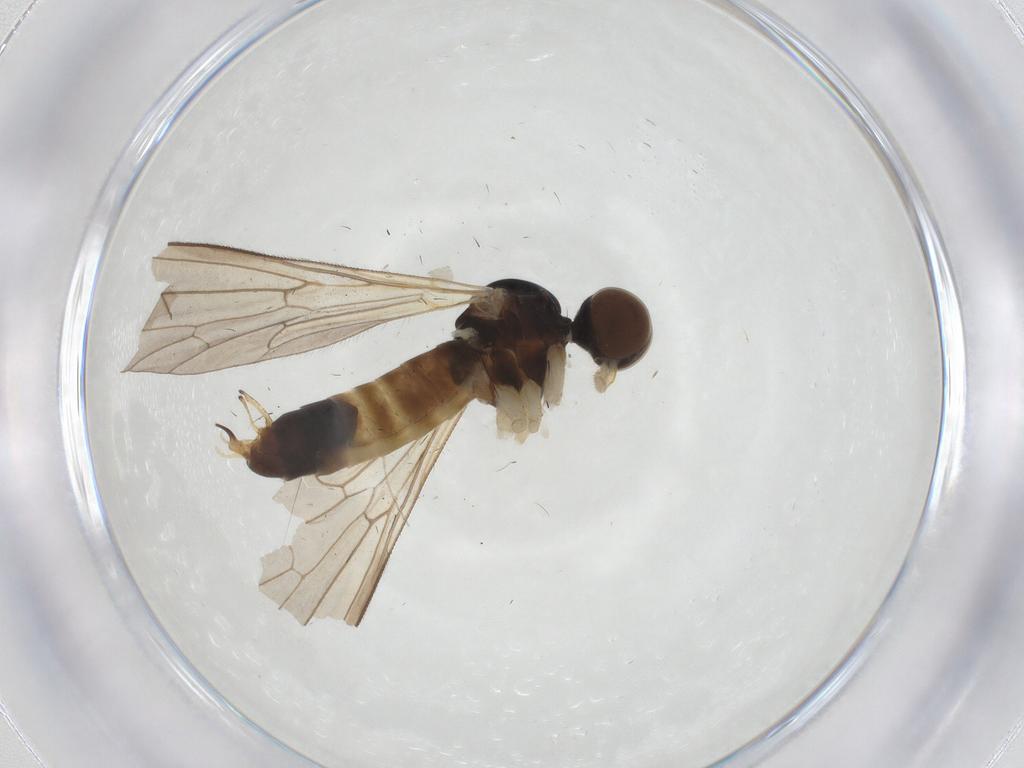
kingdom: Animalia
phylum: Arthropoda
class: Insecta
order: Diptera
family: Brachystomatidae
